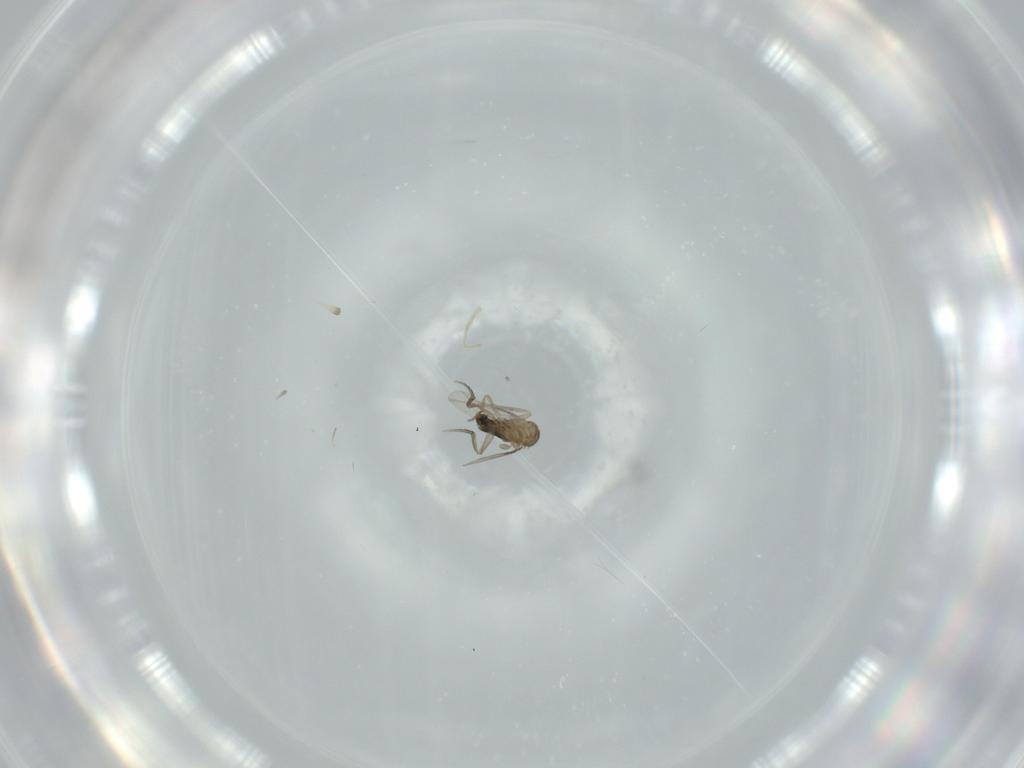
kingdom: Animalia
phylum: Arthropoda
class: Insecta
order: Diptera
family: Phoridae
